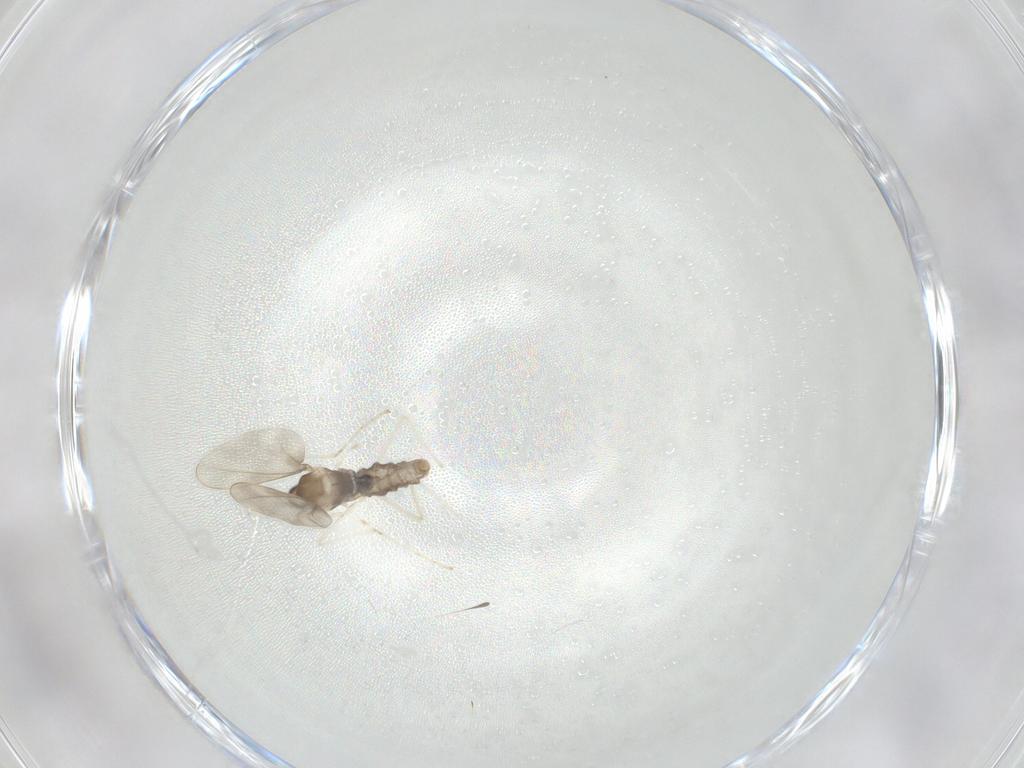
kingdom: Animalia
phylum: Arthropoda
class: Insecta
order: Diptera
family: Cecidomyiidae
